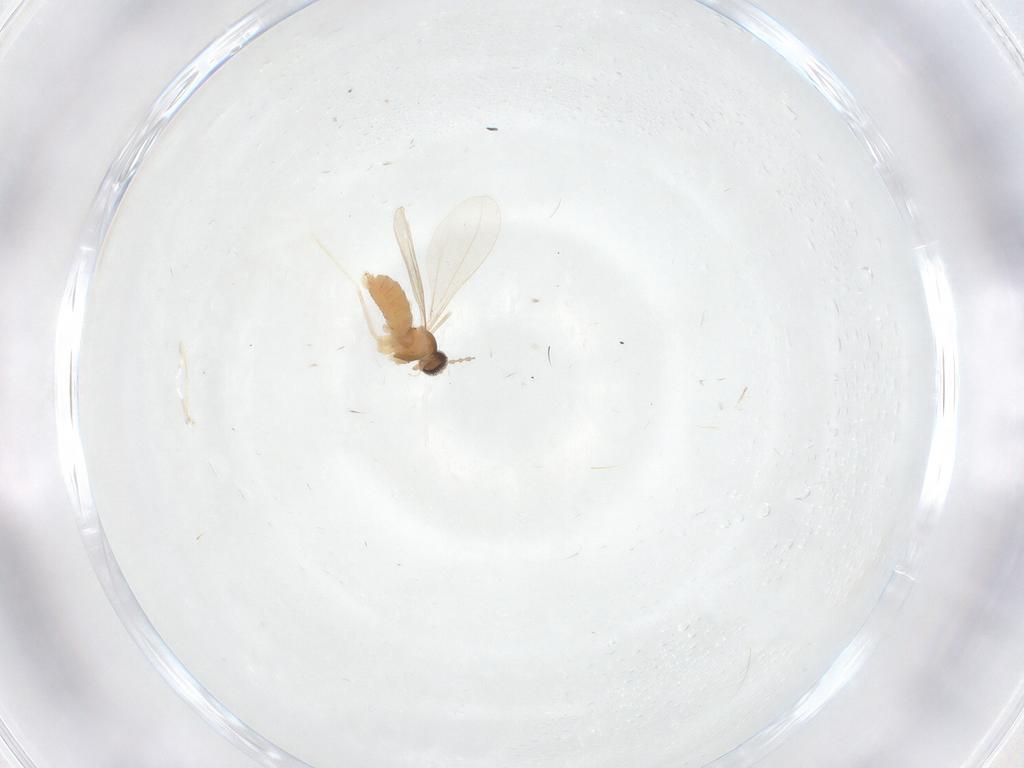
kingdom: Animalia
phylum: Arthropoda
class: Insecta
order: Diptera
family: Cecidomyiidae
